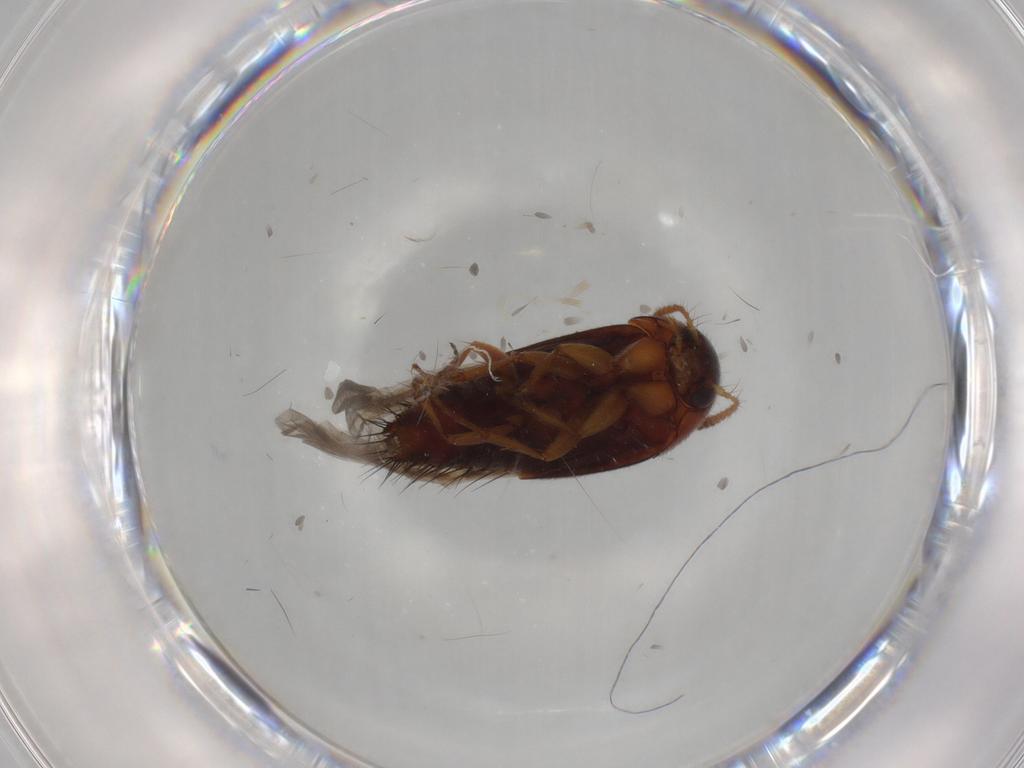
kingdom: Animalia
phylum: Arthropoda
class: Insecta
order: Coleoptera
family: Staphylinidae
